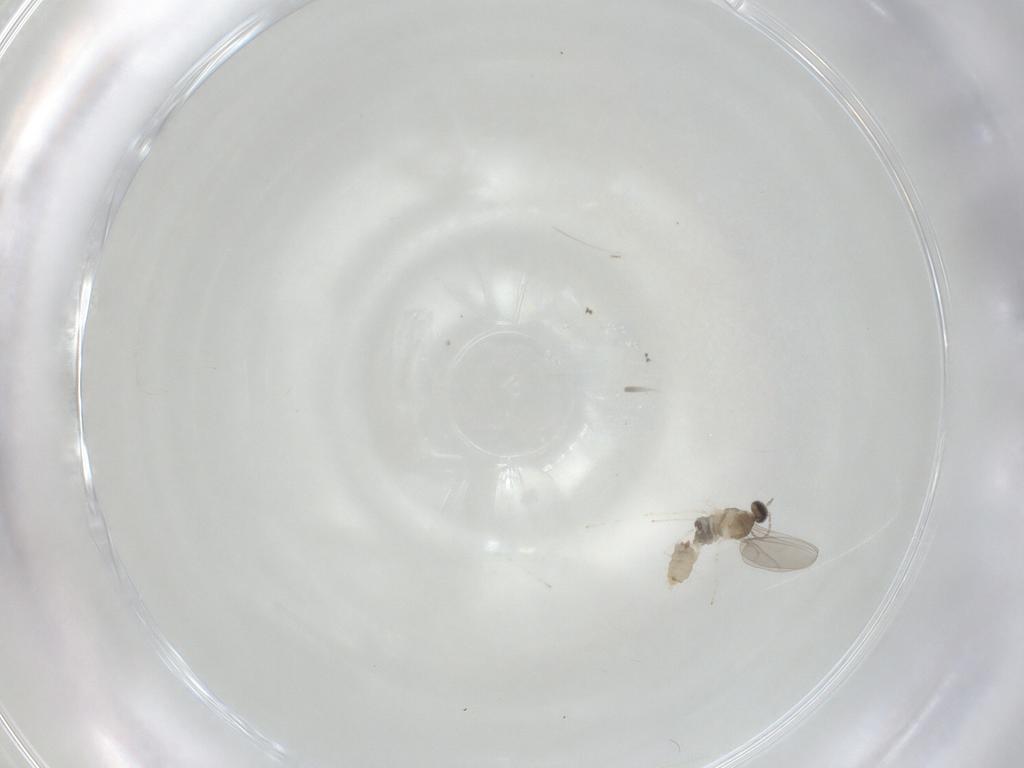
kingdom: Animalia
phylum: Arthropoda
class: Insecta
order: Diptera
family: Cecidomyiidae
